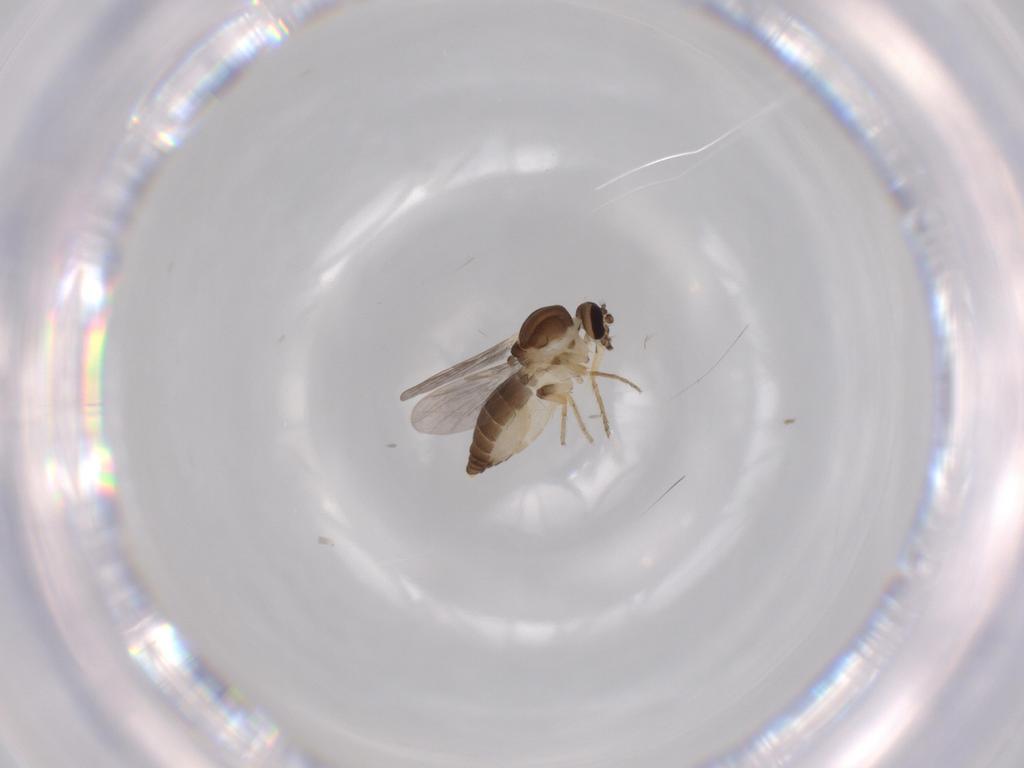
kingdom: Animalia
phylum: Arthropoda
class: Insecta
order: Diptera
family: Ceratopogonidae
